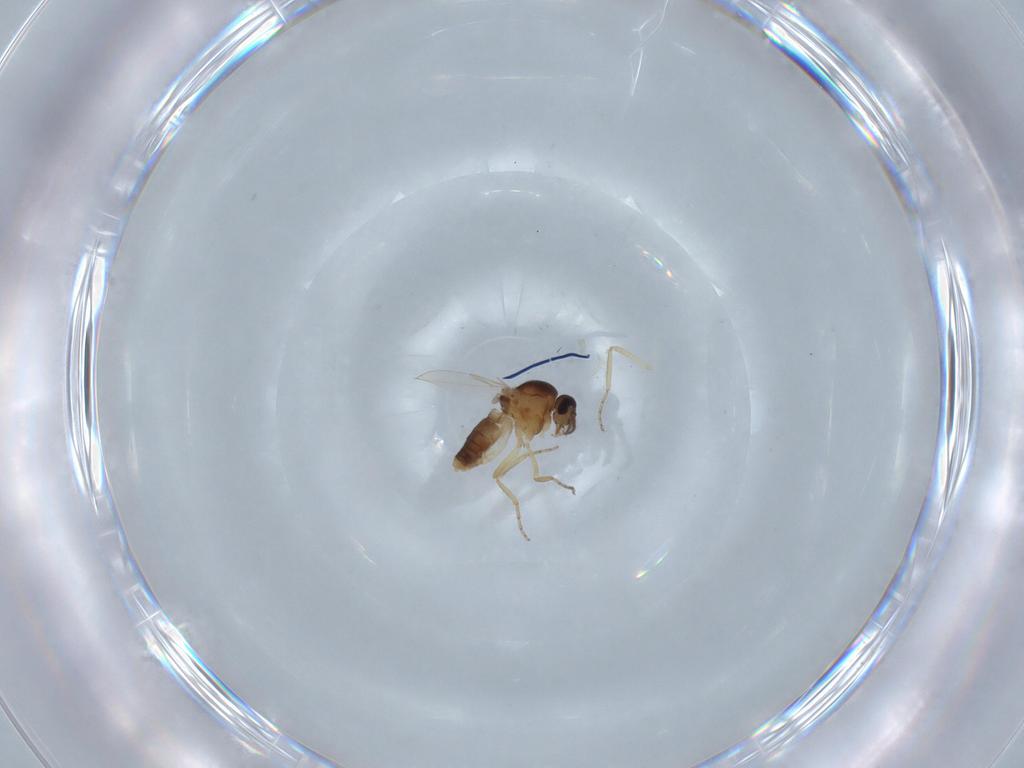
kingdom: Animalia
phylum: Arthropoda
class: Insecta
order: Diptera
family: Ceratopogonidae
